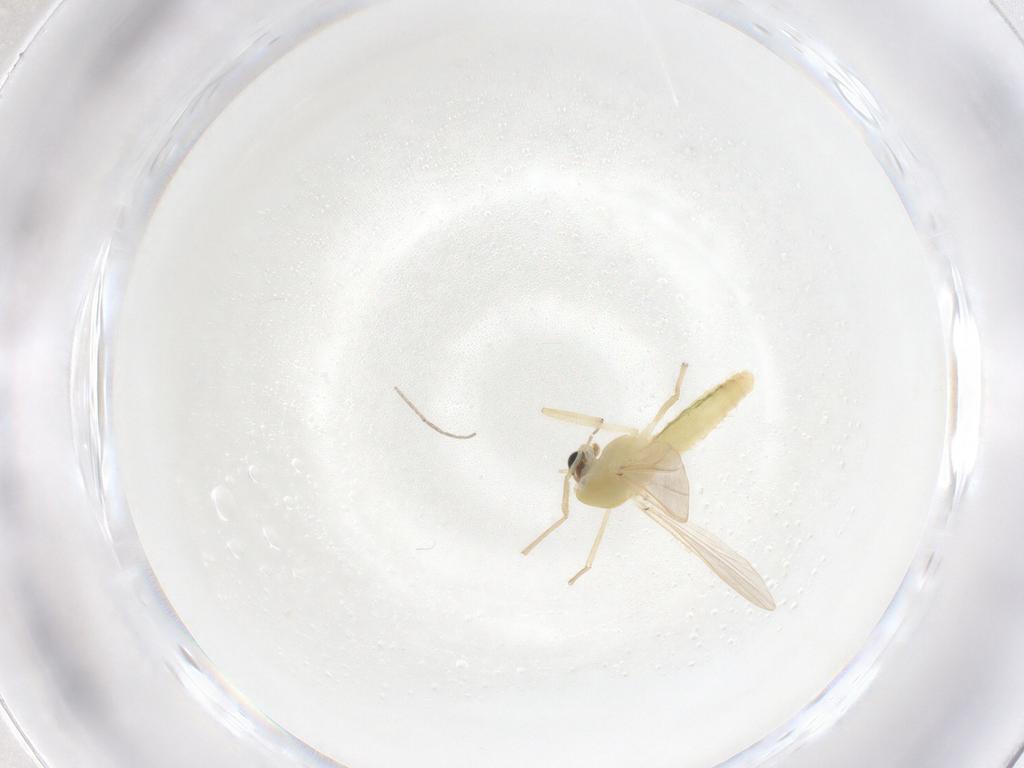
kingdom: Animalia
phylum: Arthropoda
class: Insecta
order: Diptera
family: Chironomidae
